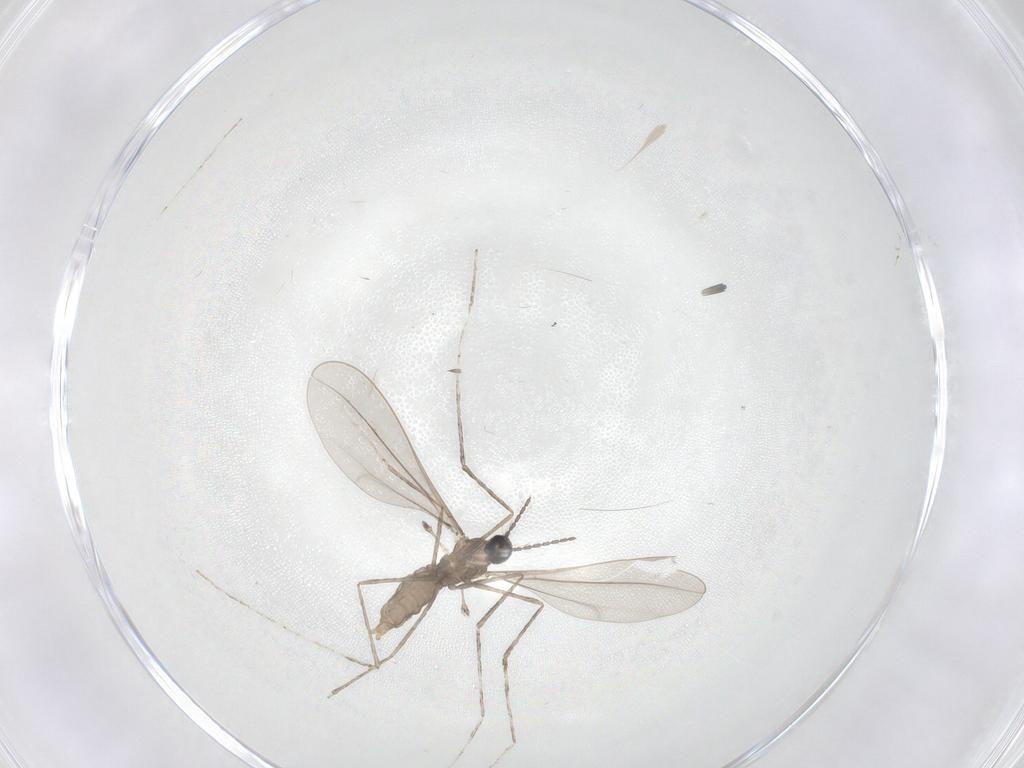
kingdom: Animalia
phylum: Arthropoda
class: Insecta
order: Diptera
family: Cecidomyiidae
